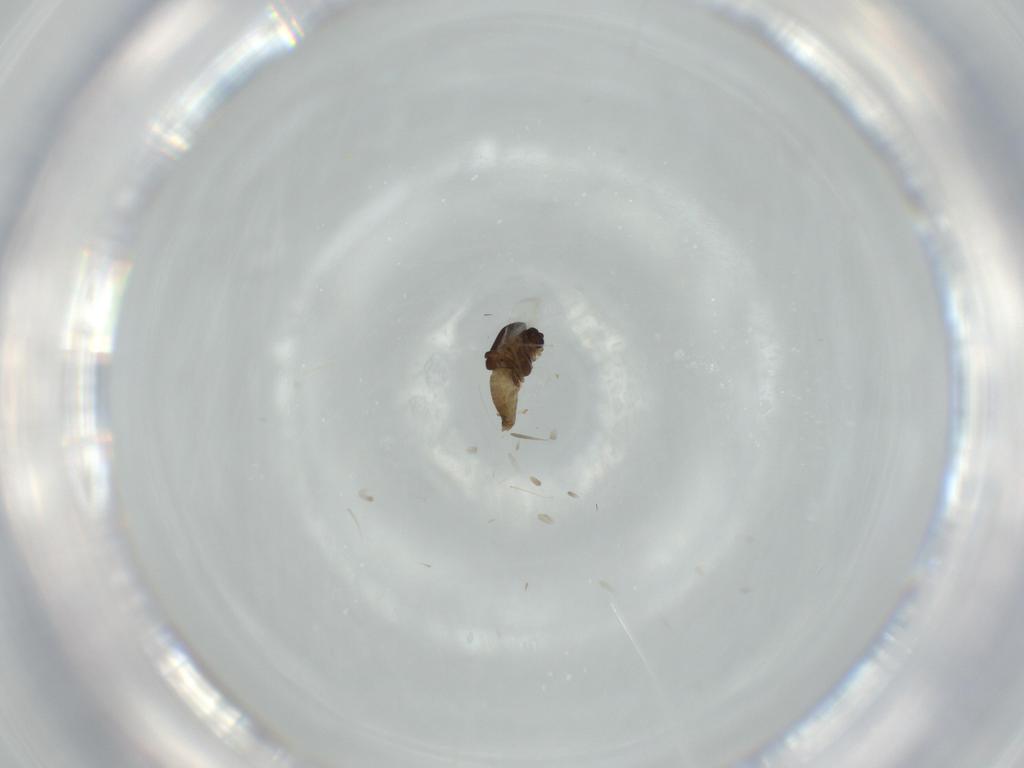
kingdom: Animalia
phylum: Arthropoda
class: Insecta
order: Diptera
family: Chironomidae
